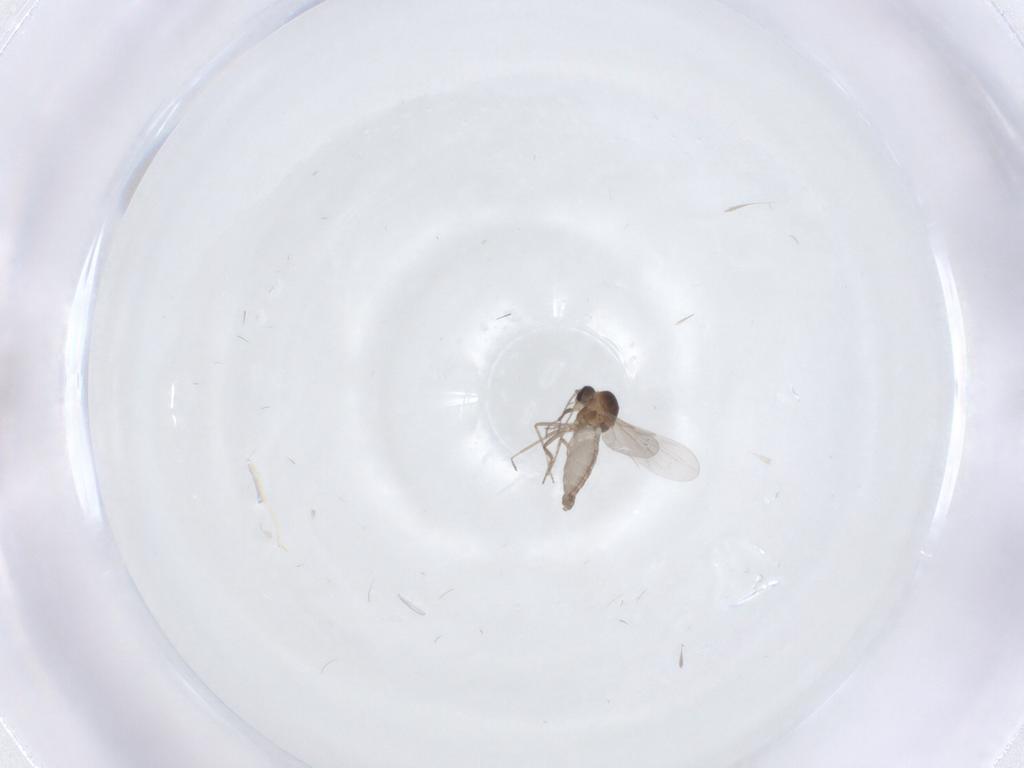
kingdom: Animalia
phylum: Arthropoda
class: Insecta
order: Diptera
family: Ceratopogonidae
